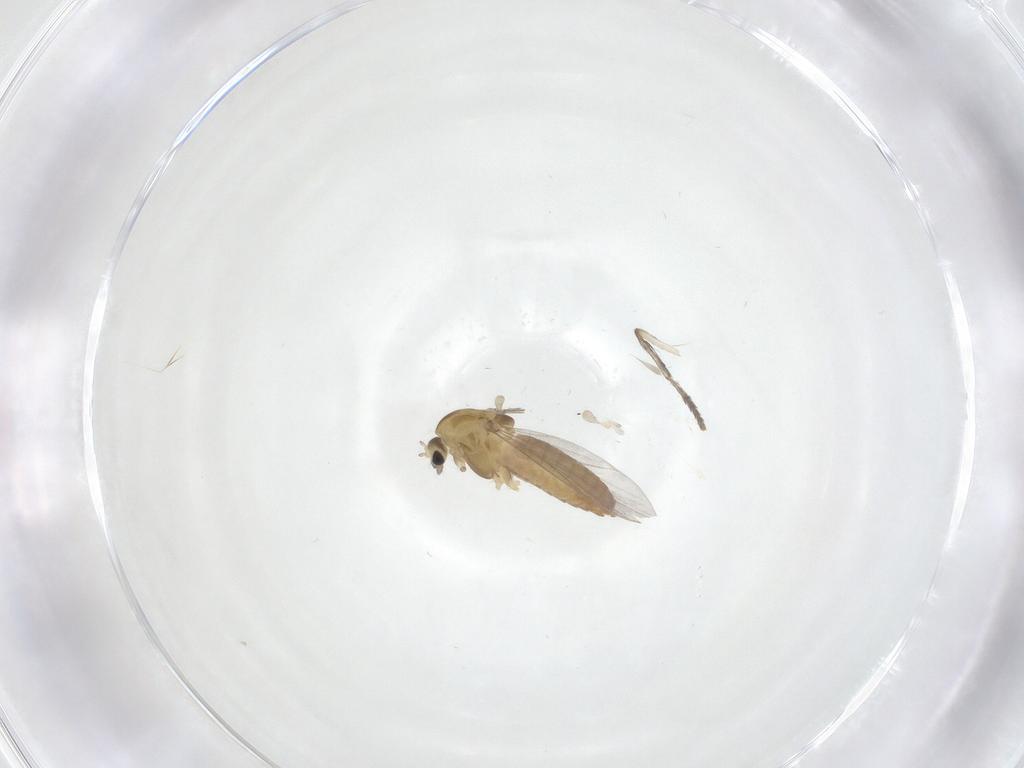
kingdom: Animalia
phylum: Arthropoda
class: Insecta
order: Diptera
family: Chironomidae
